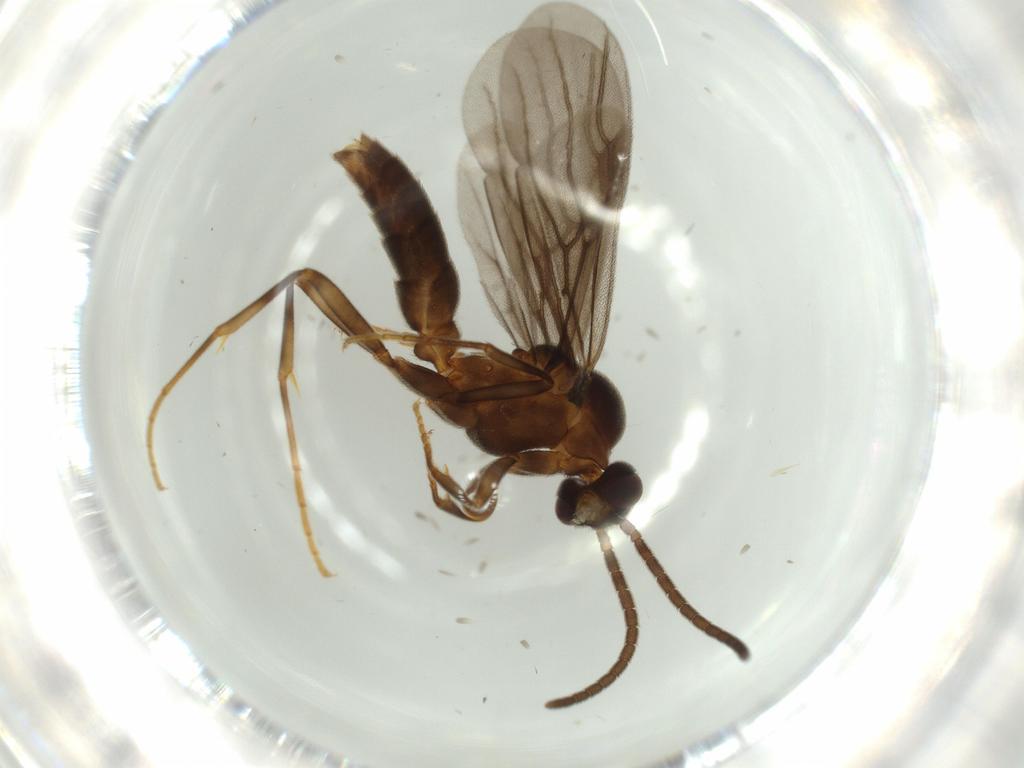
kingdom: Animalia
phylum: Arthropoda
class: Insecta
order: Hymenoptera
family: Formicidae
